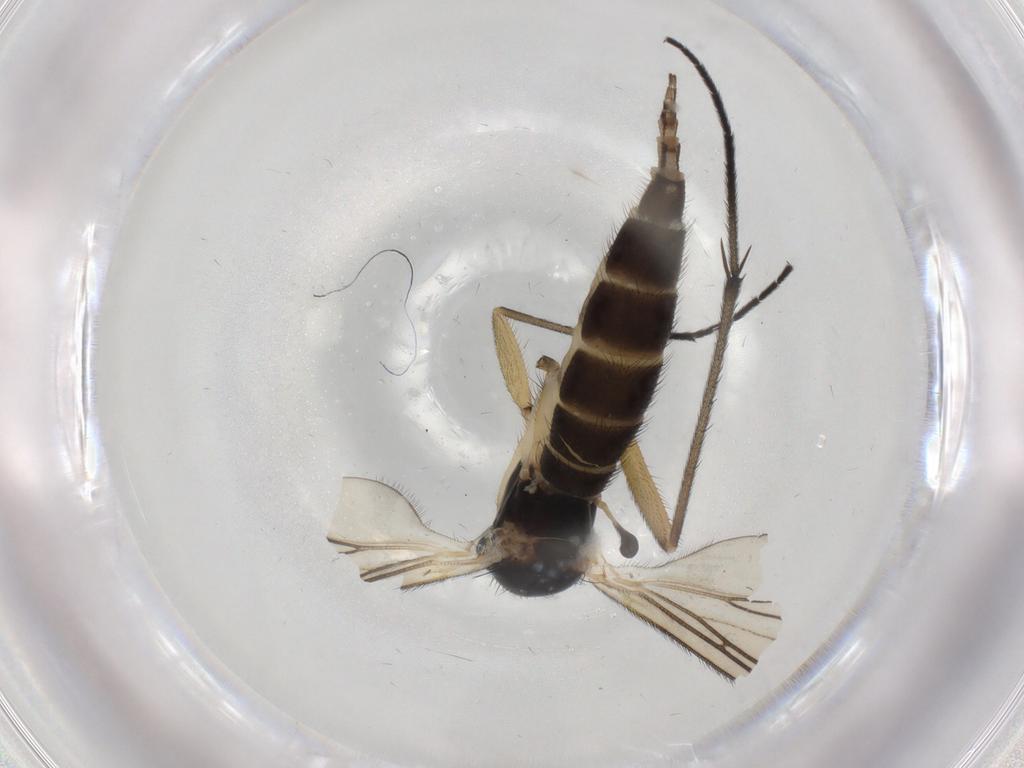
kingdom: Animalia
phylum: Arthropoda
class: Insecta
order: Diptera
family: Sciaridae
